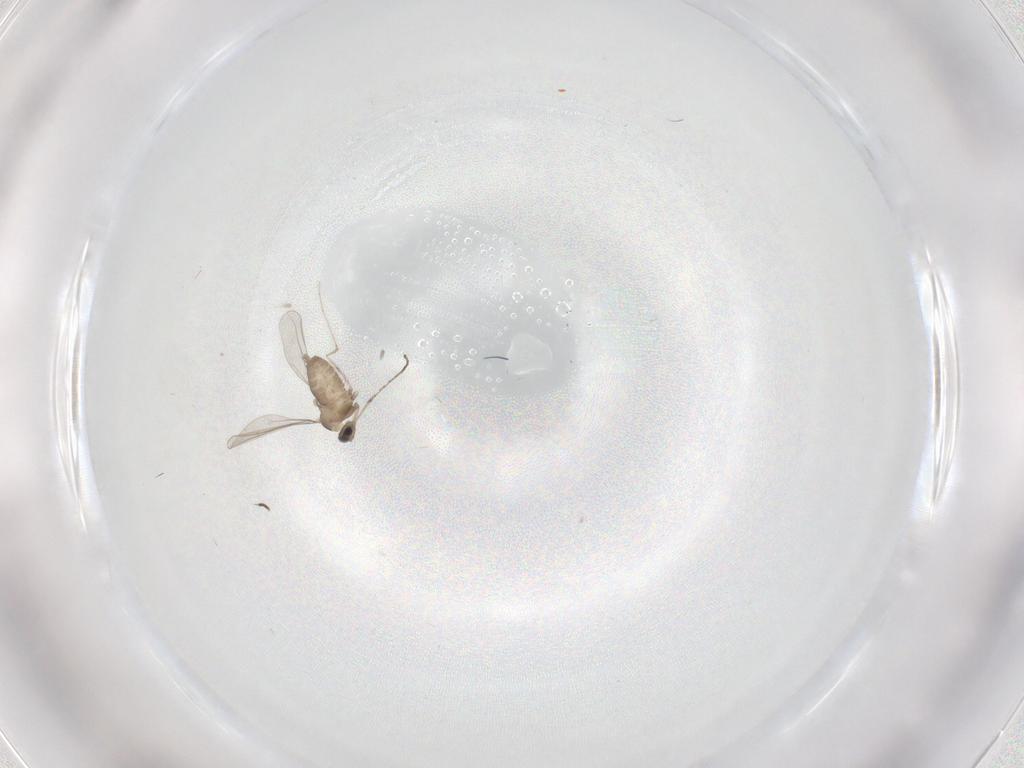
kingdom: Animalia
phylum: Arthropoda
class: Insecta
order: Diptera
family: Cecidomyiidae
